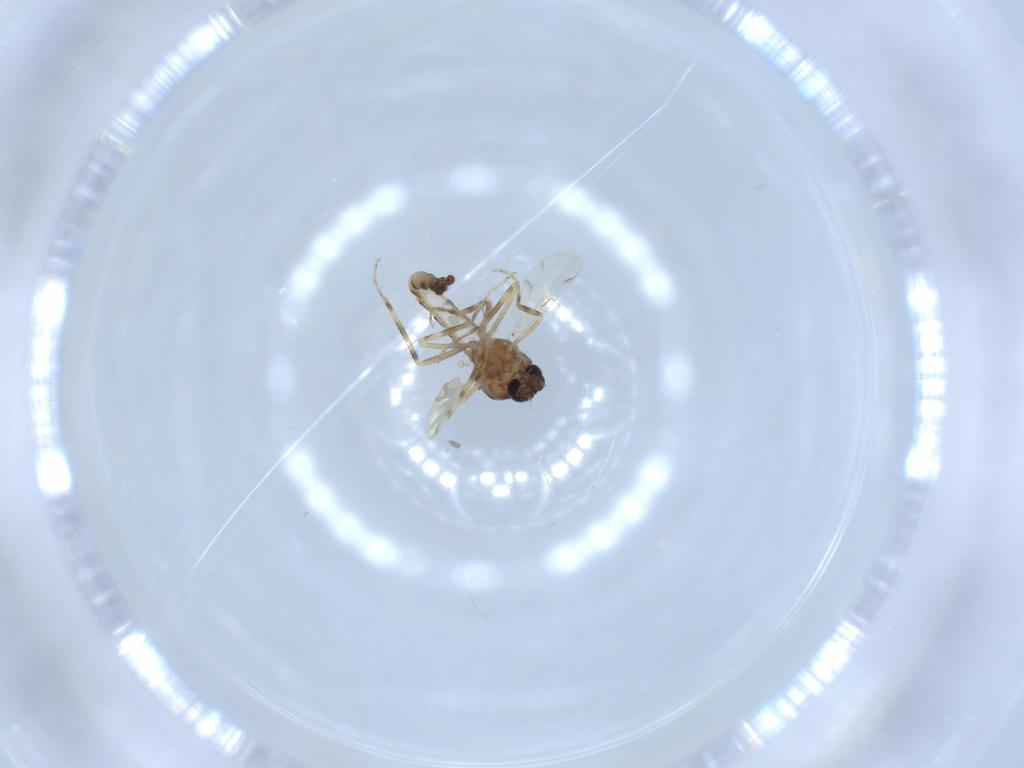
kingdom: Animalia
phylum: Arthropoda
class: Insecta
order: Diptera
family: Ceratopogonidae
